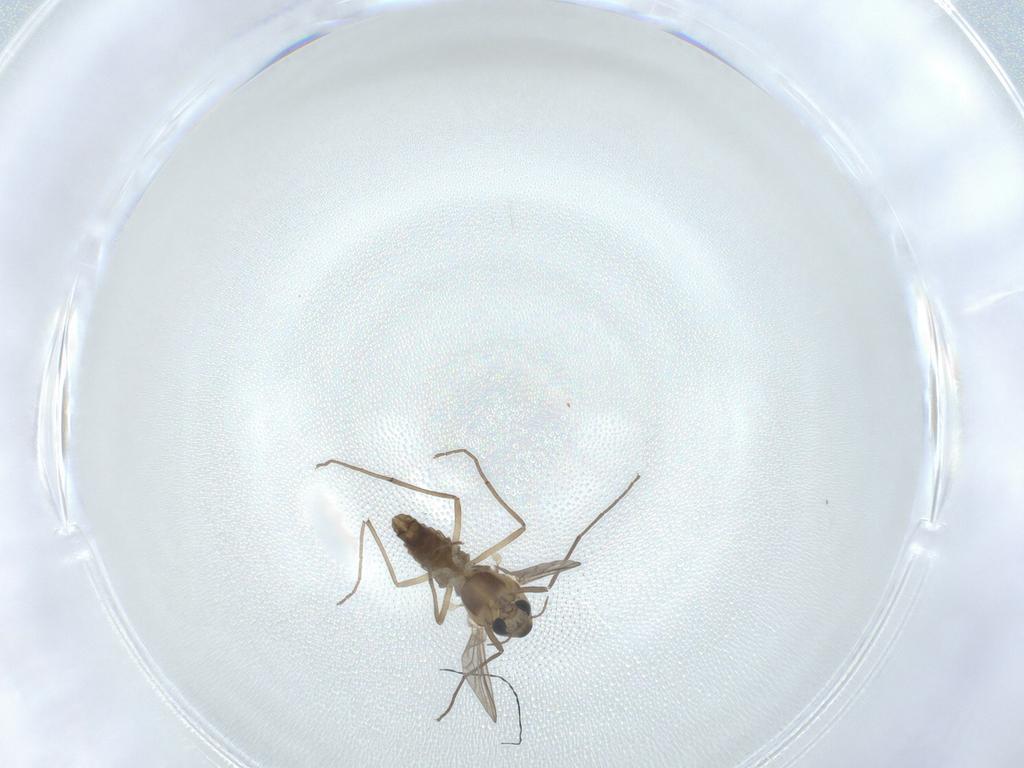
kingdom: Animalia
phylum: Arthropoda
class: Insecta
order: Diptera
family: Chironomidae
